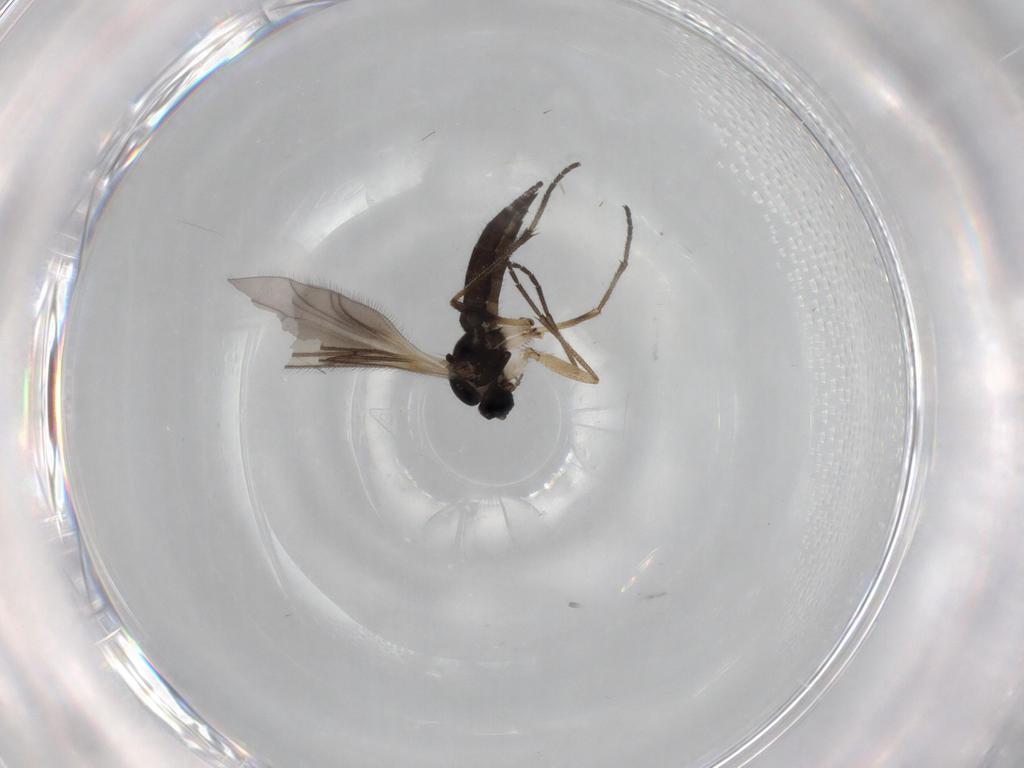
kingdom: Animalia
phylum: Arthropoda
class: Insecta
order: Diptera
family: Sciaridae
